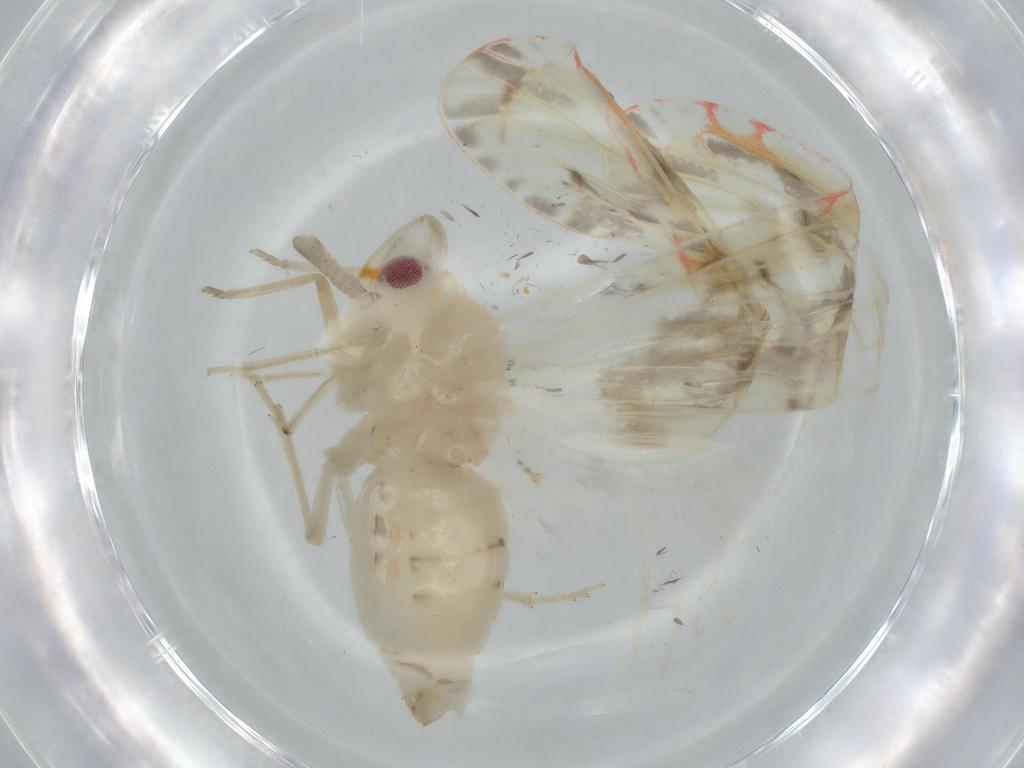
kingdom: Animalia
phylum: Arthropoda
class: Insecta
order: Hemiptera
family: Derbidae
